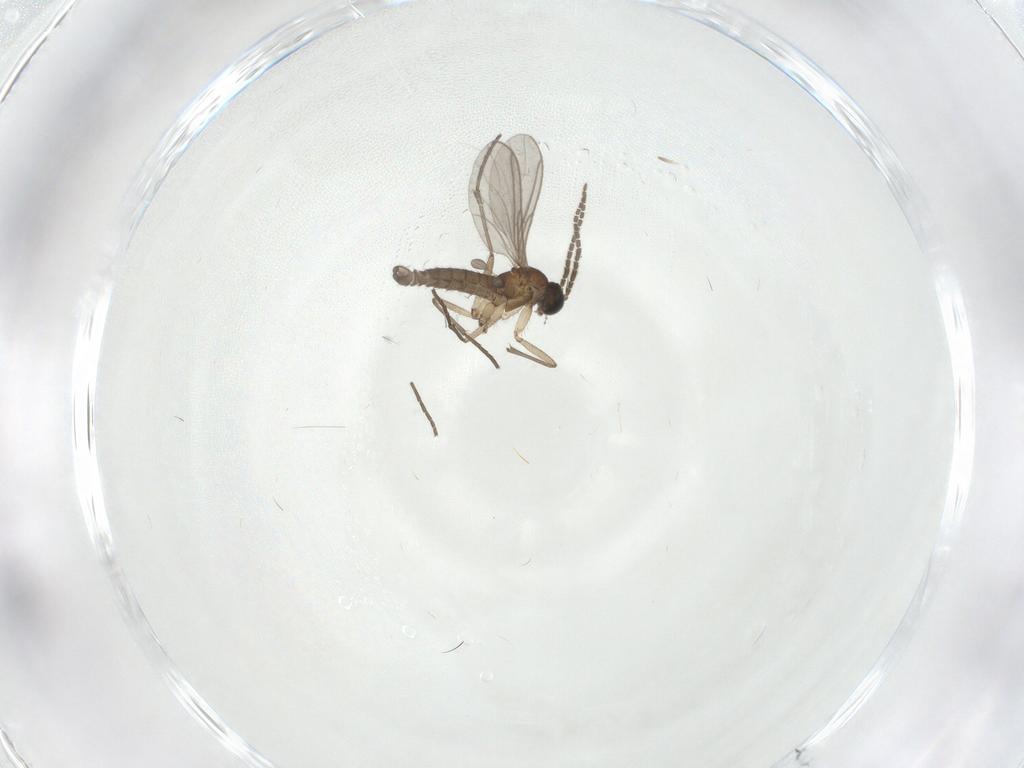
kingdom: Animalia
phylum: Arthropoda
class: Insecta
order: Diptera
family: Sciaridae
